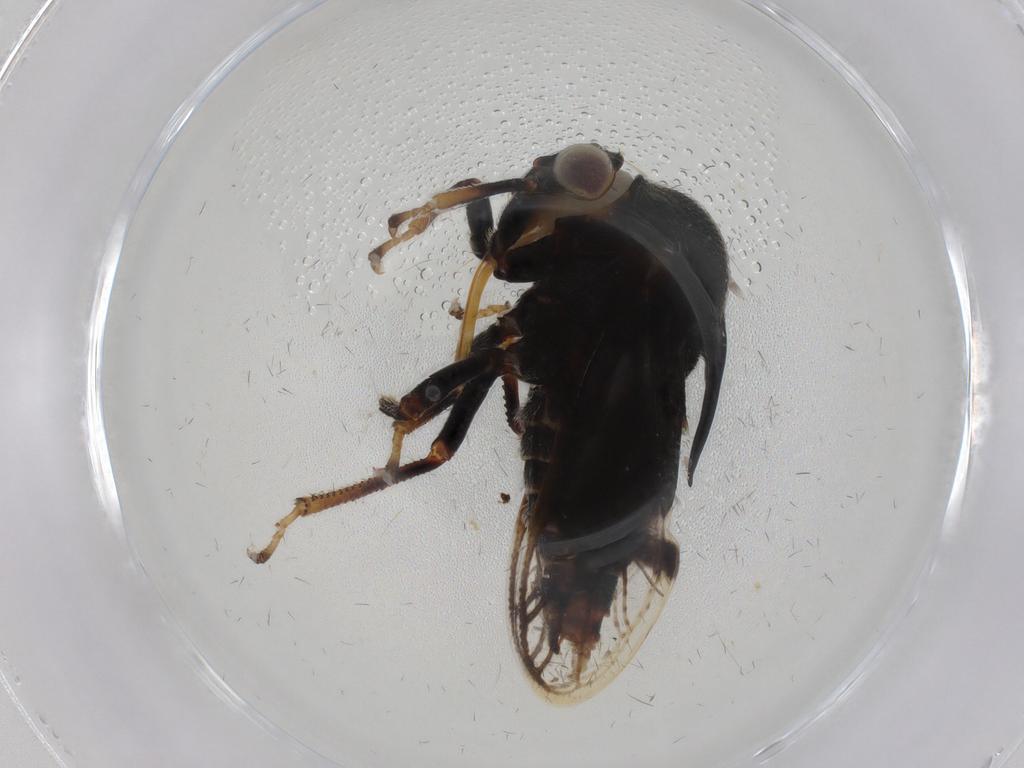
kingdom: Animalia
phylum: Arthropoda
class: Insecta
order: Hemiptera
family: Membracidae
